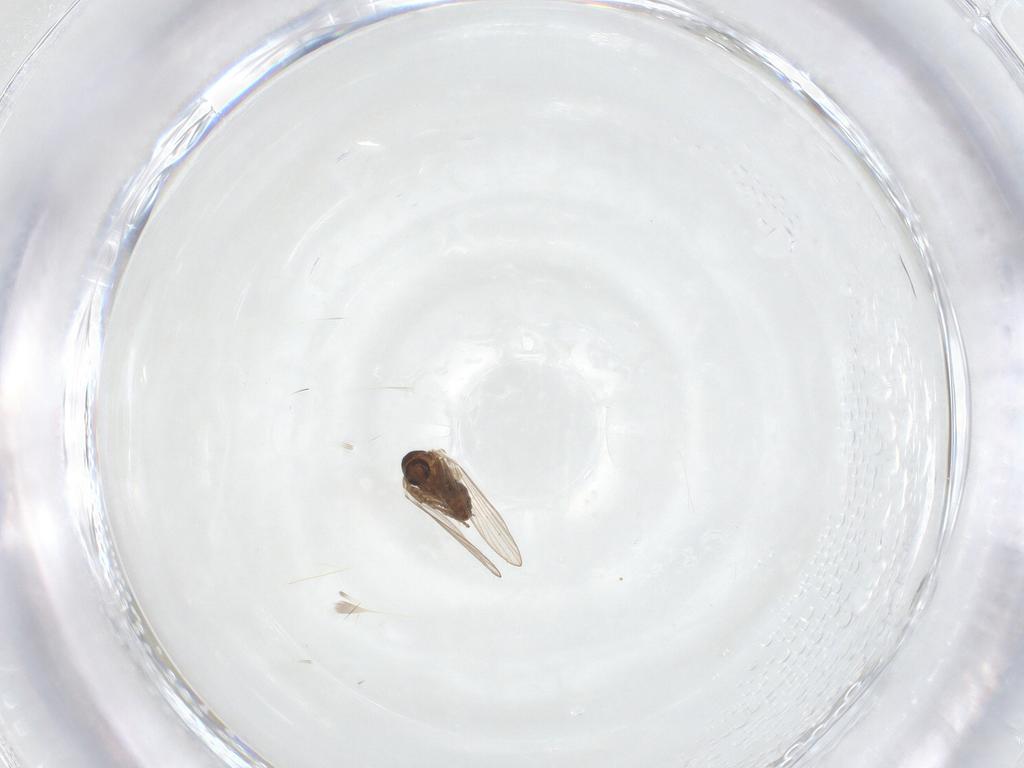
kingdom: Animalia
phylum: Arthropoda
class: Insecta
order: Diptera
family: Psychodidae
